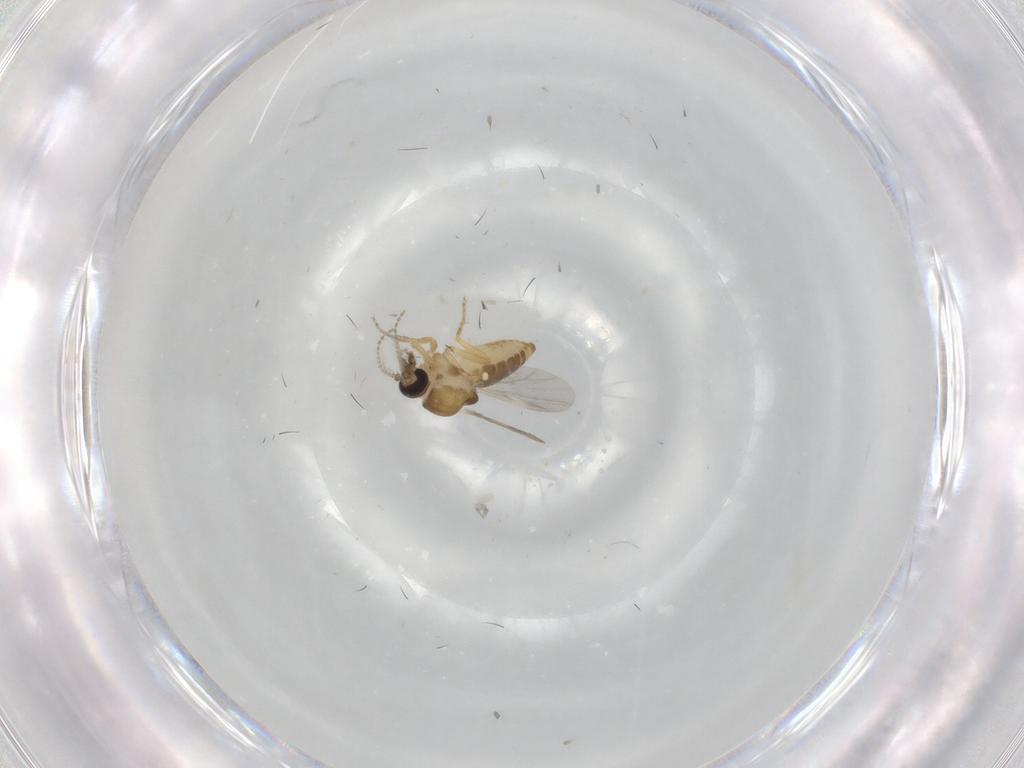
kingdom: Animalia
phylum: Arthropoda
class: Insecta
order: Diptera
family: Ceratopogonidae
